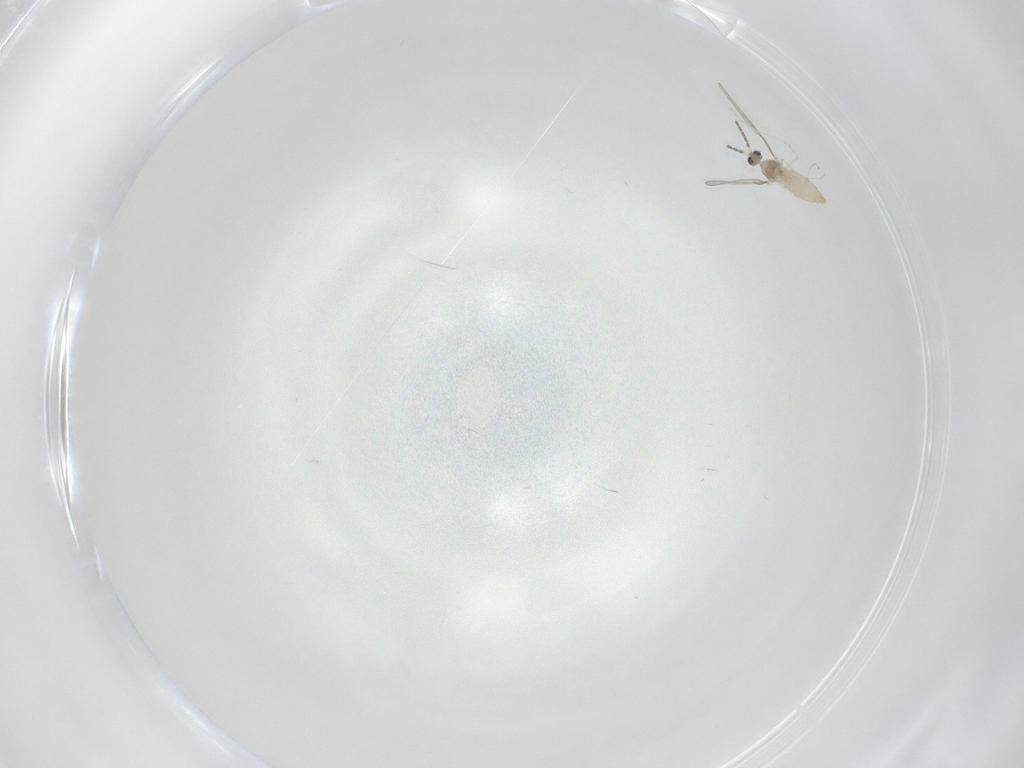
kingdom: Animalia
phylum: Arthropoda
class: Insecta
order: Diptera
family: Cecidomyiidae
